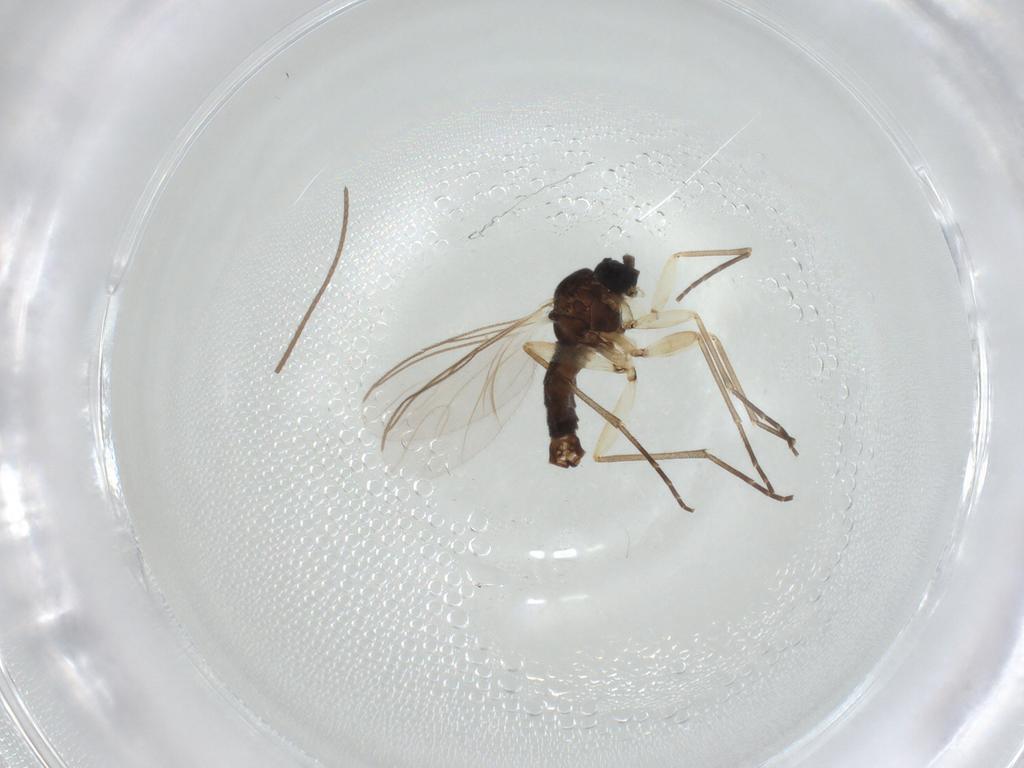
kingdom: Animalia
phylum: Arthropoda
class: Insecta
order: Diptera
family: Sciaridae
